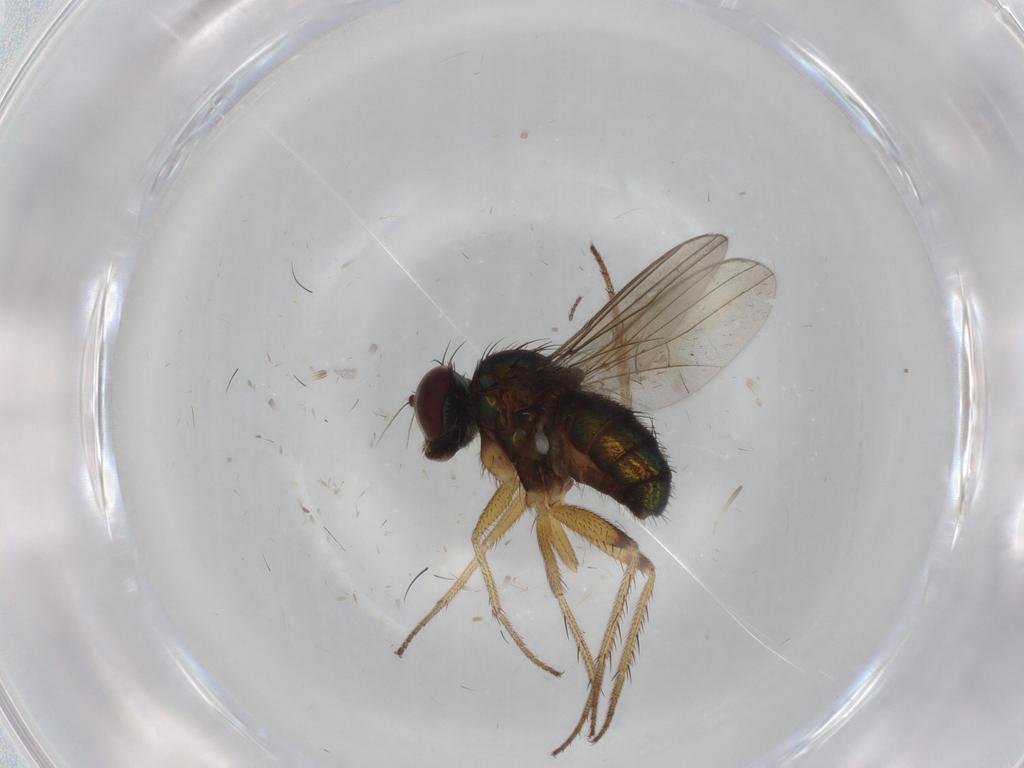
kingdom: Animalia
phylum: Arthropoda
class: Insecta
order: Diptera
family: Dolichopodidae
